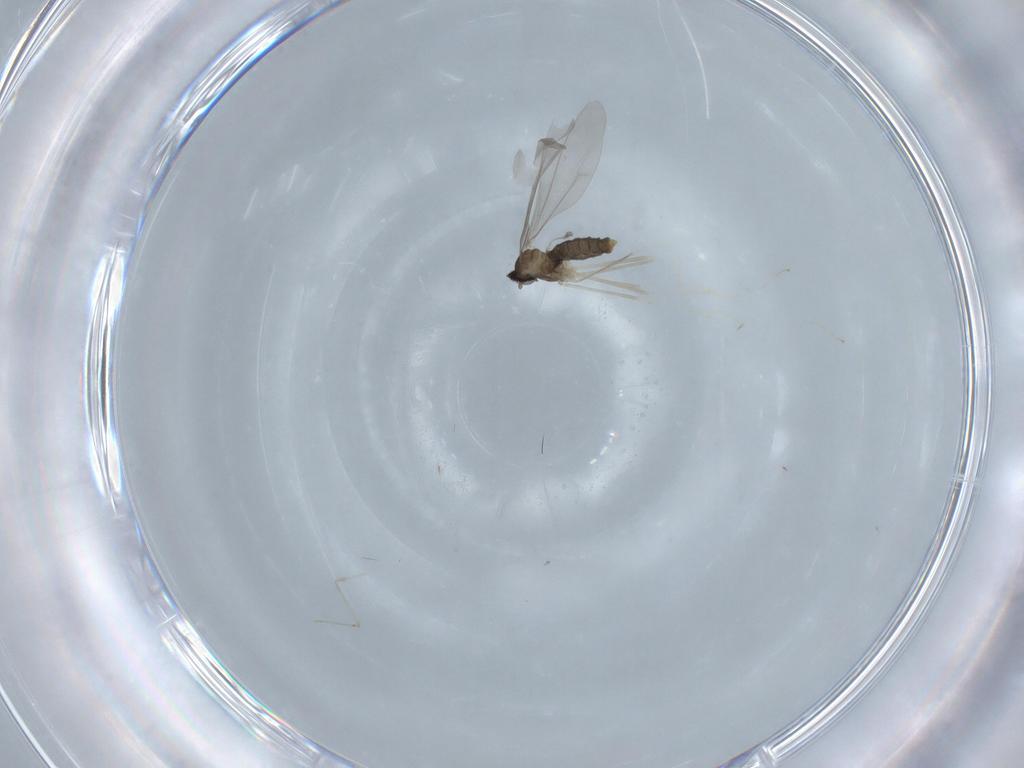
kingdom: Animalia
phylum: Arthropoda
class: Insecta
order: Diptera
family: Cecidomyiidae
